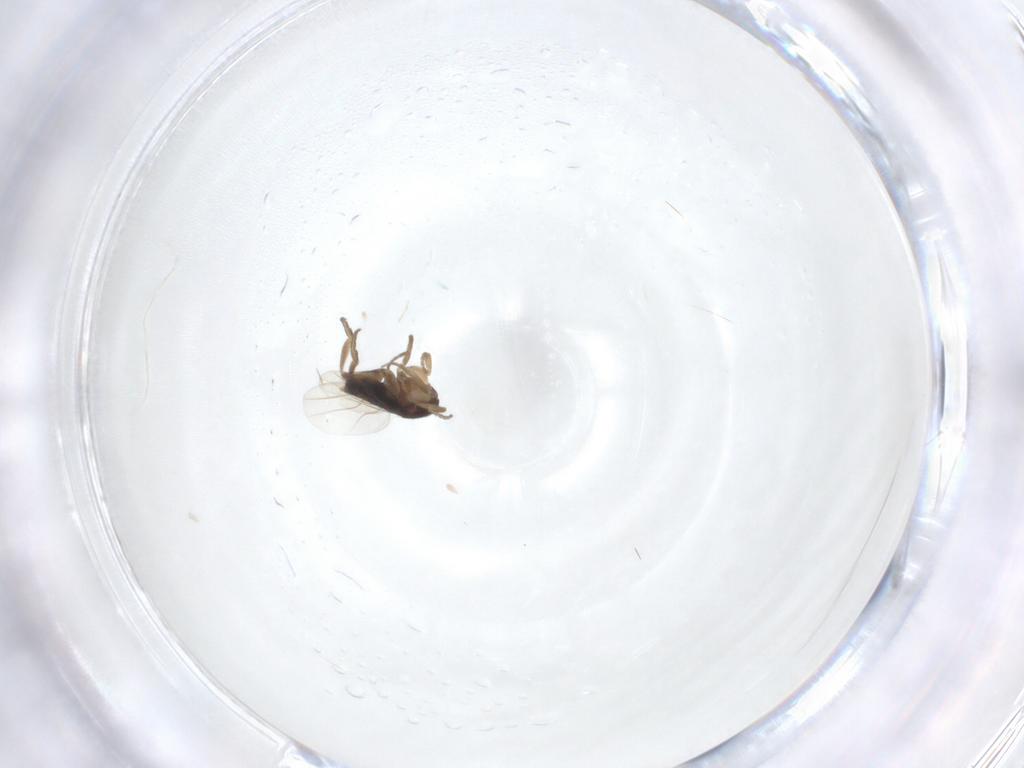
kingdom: Animalia
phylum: Arthropoda
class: Insecta
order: Diptera
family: Phoridae
